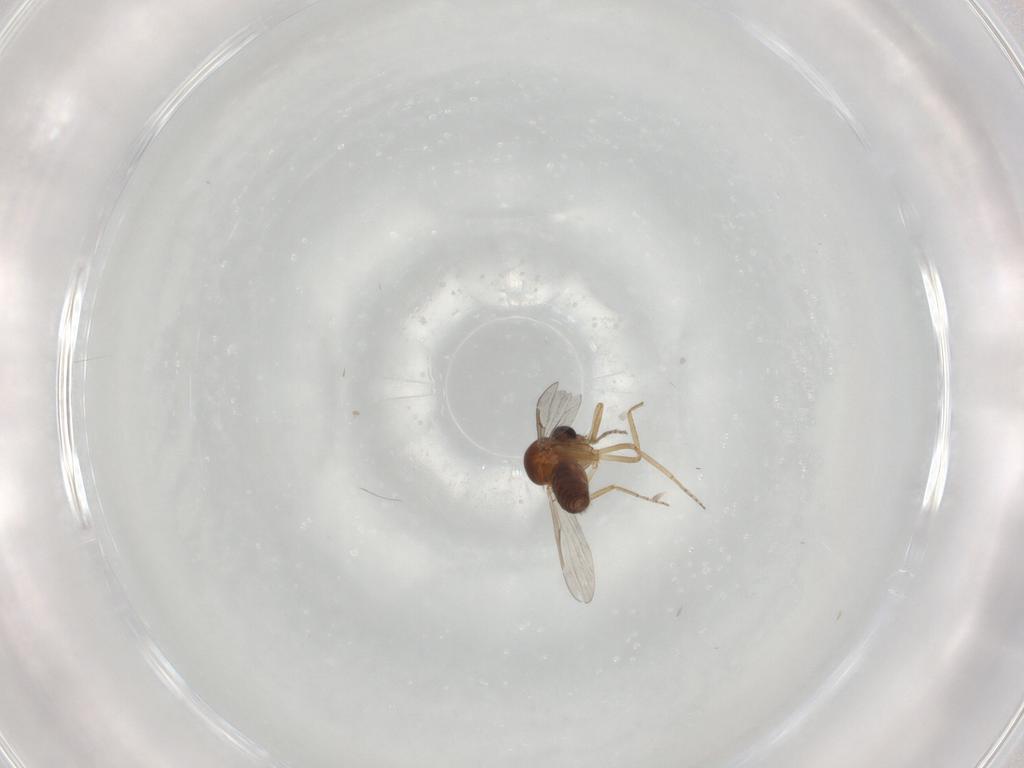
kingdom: Animalia
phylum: Arthropoda
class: Insecta
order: Diptera
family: Ceratopogonidae
